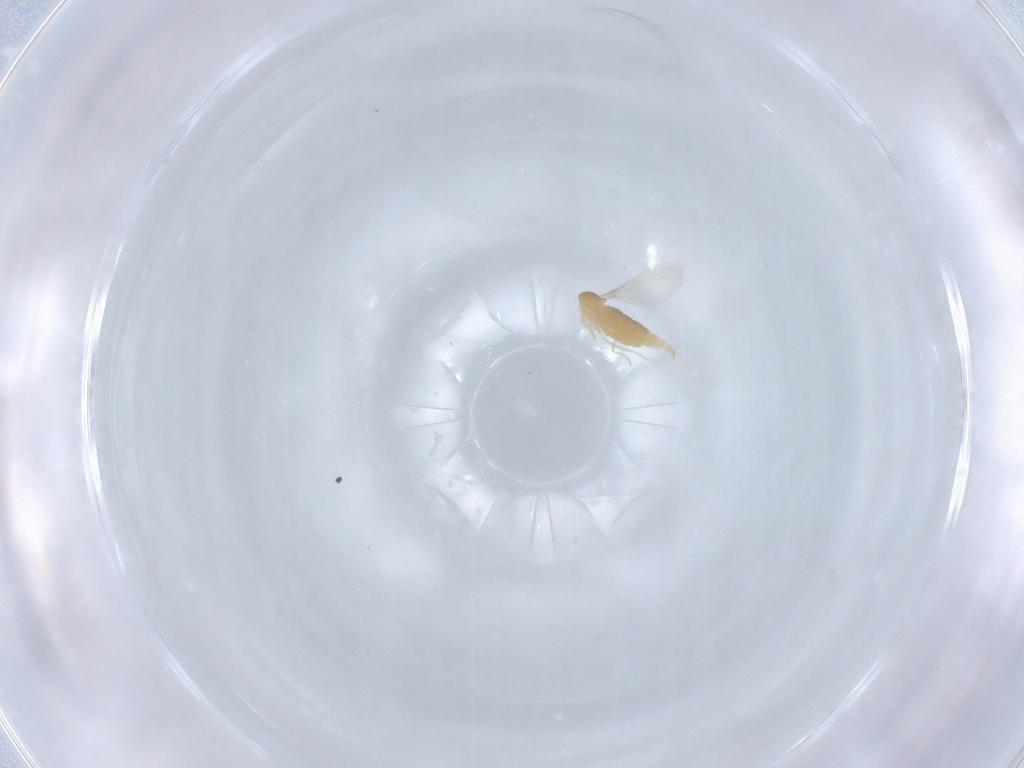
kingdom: Animalia
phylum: Arthropoda
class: Insecta
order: Diptera
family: Cecidomyiidae
